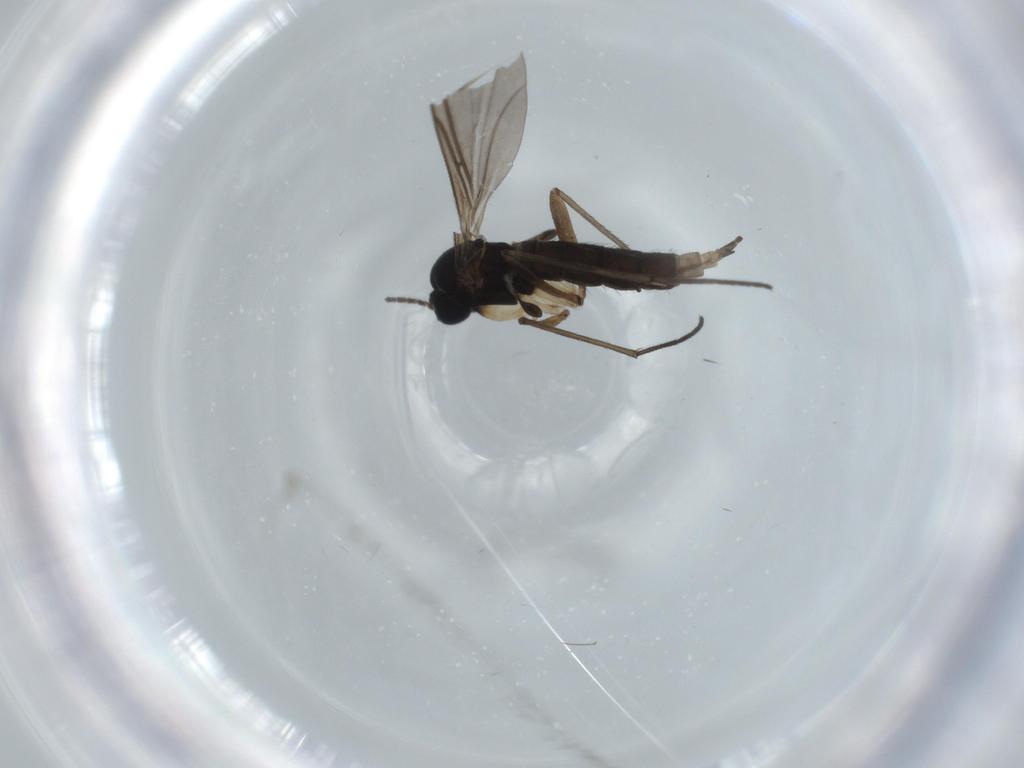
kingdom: Animalia
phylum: Arthropoda
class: Insecta
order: Diptera
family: Sciaridae
